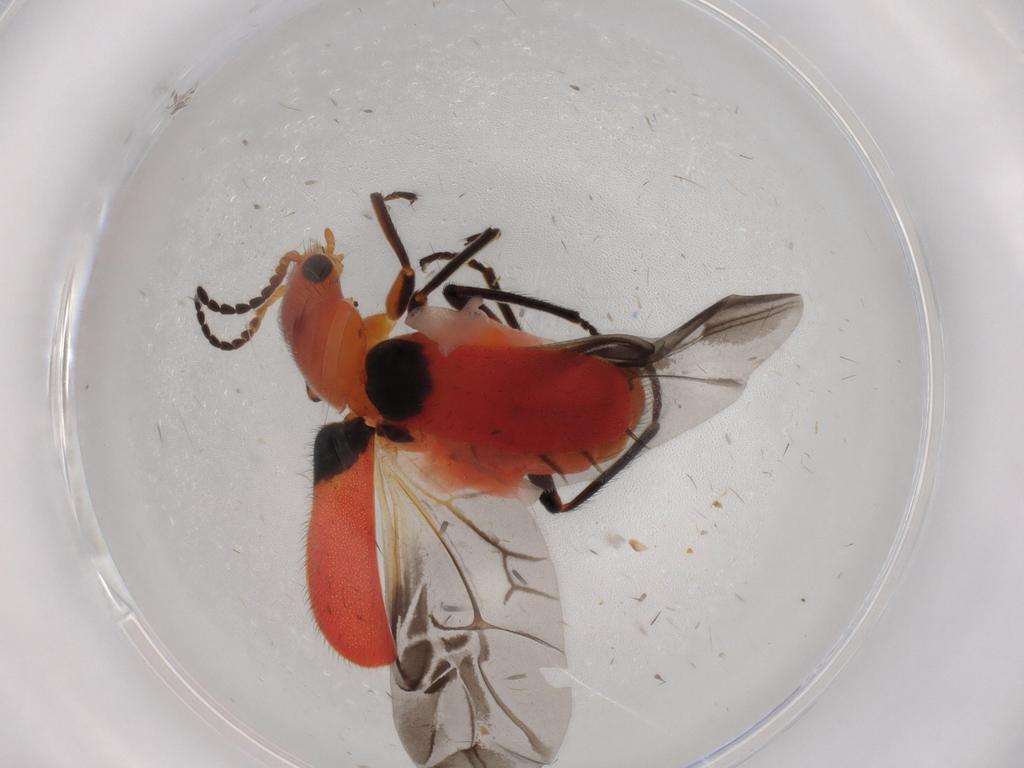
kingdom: Animalia
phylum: Arthropoda
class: Insecta
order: Coleoptera
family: Melyridae
